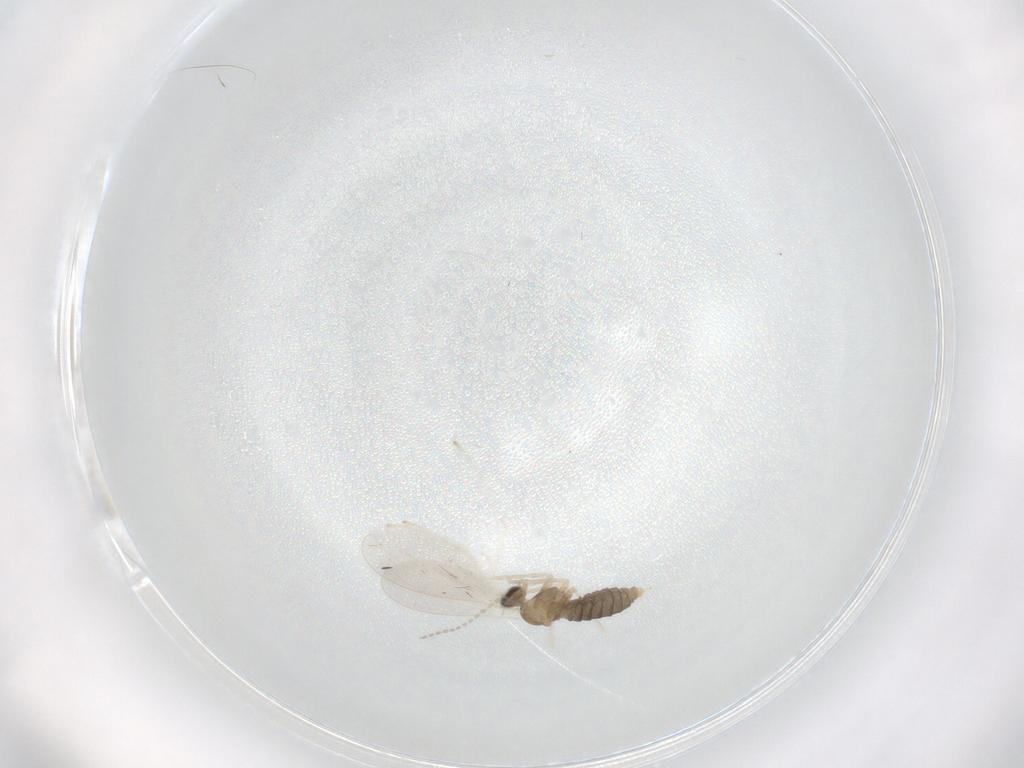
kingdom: Animalia
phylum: Arthropoda
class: Insecta
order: Diptera
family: Cecidomyiidae
